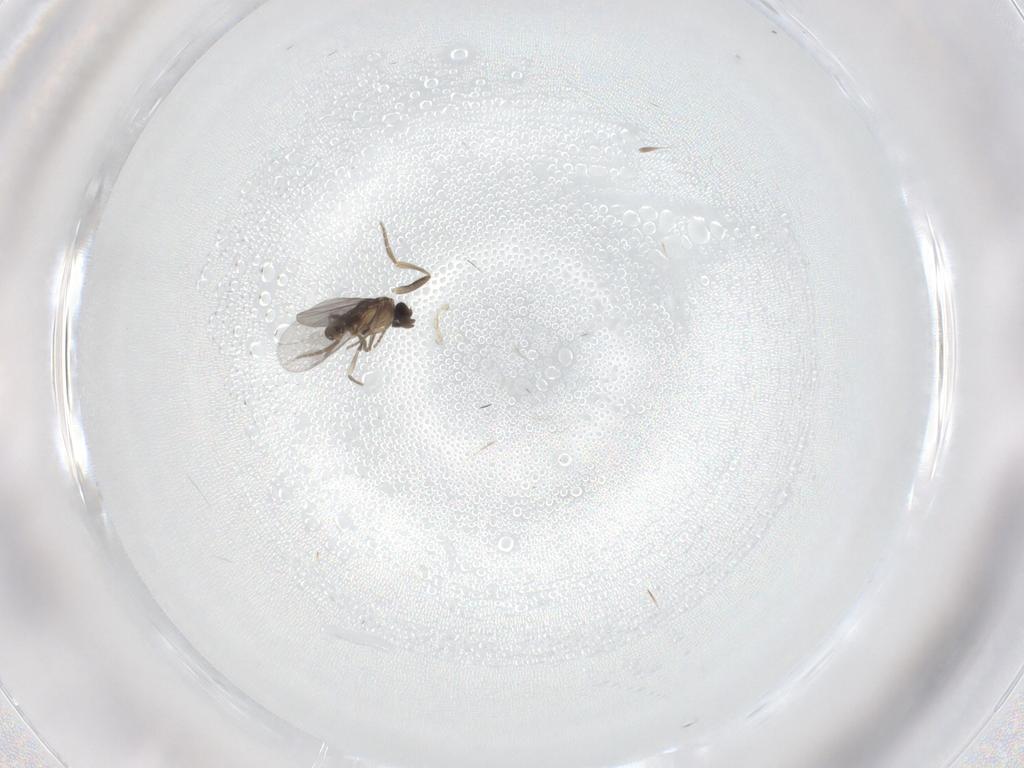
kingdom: Animalia
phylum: Arthropoda
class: Insecta
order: Diptera
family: Sciaridae
